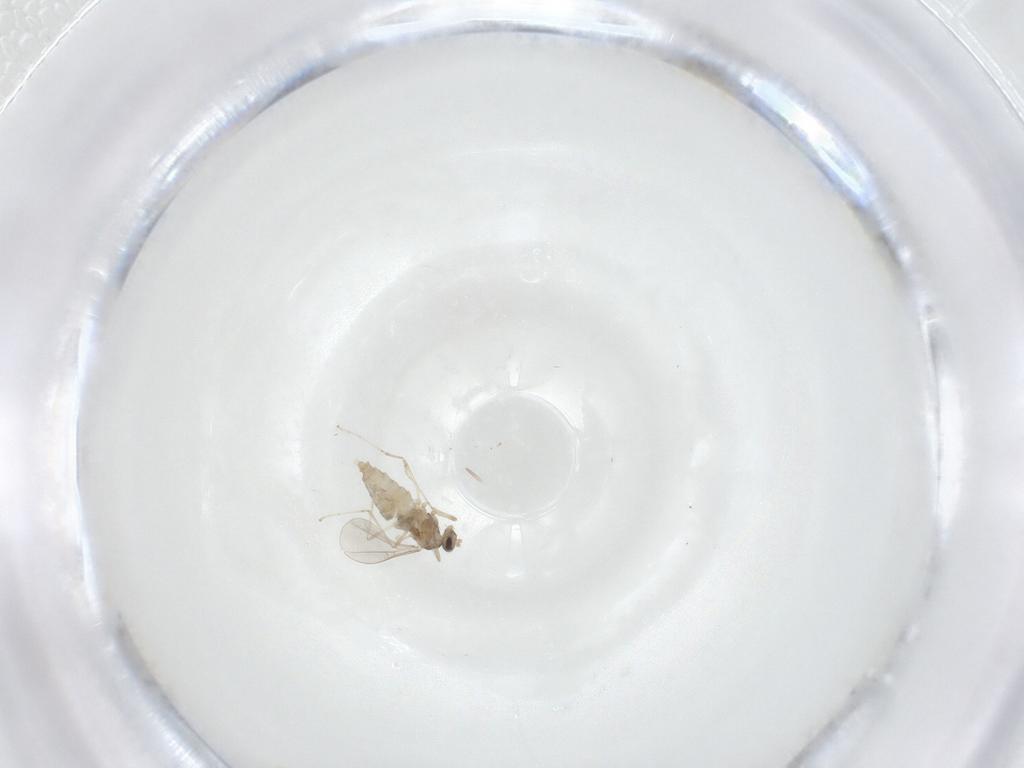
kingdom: Animalia
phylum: Arthropoda
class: Insecta
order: Diptera
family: Cecidomyiidae
